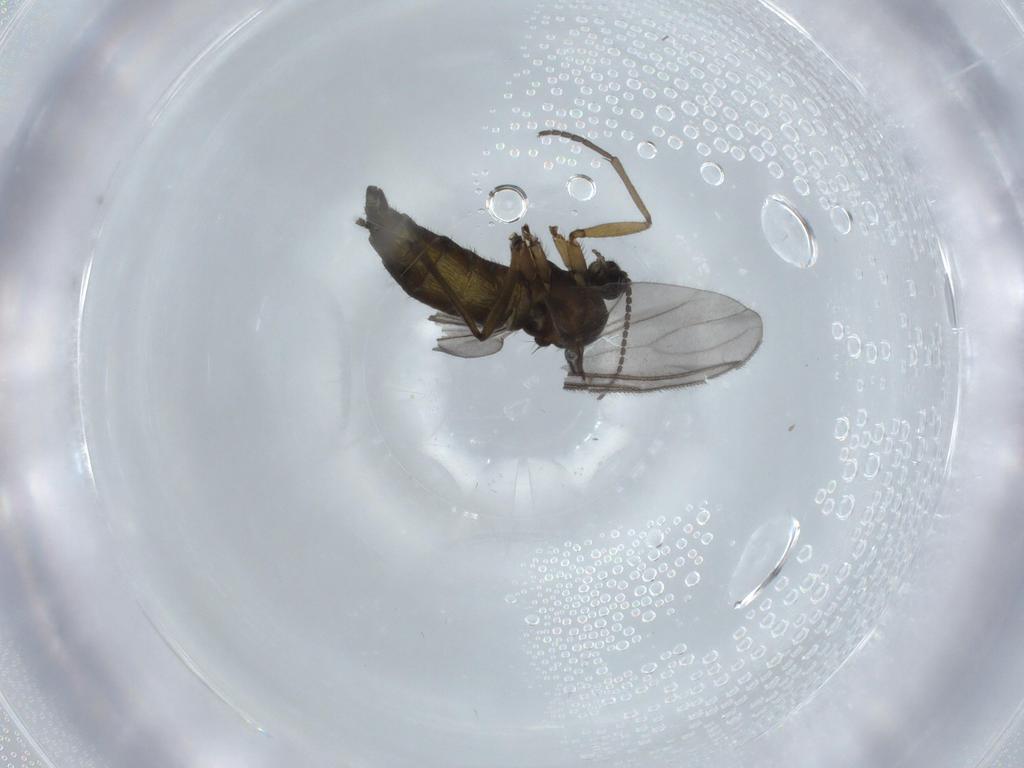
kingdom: Animalia
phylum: Arthropoda
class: Insecta
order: Diptera
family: Sciaridae
